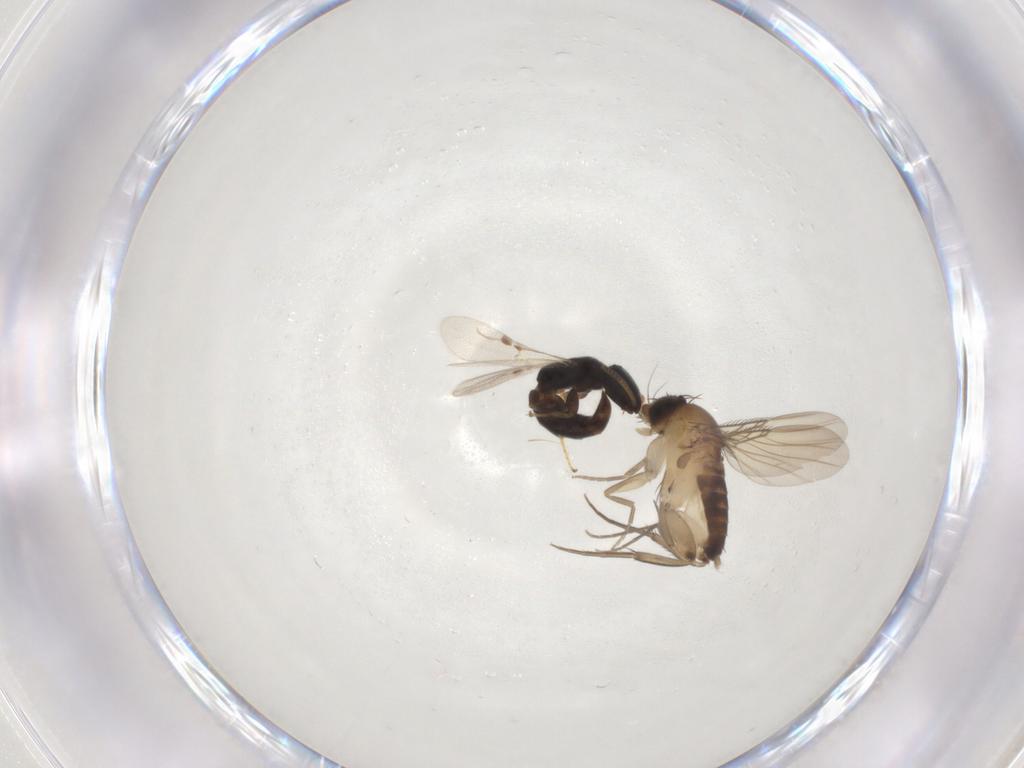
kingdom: Animalia
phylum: Arthropoda
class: Insecta
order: Diptera
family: Phoridae
